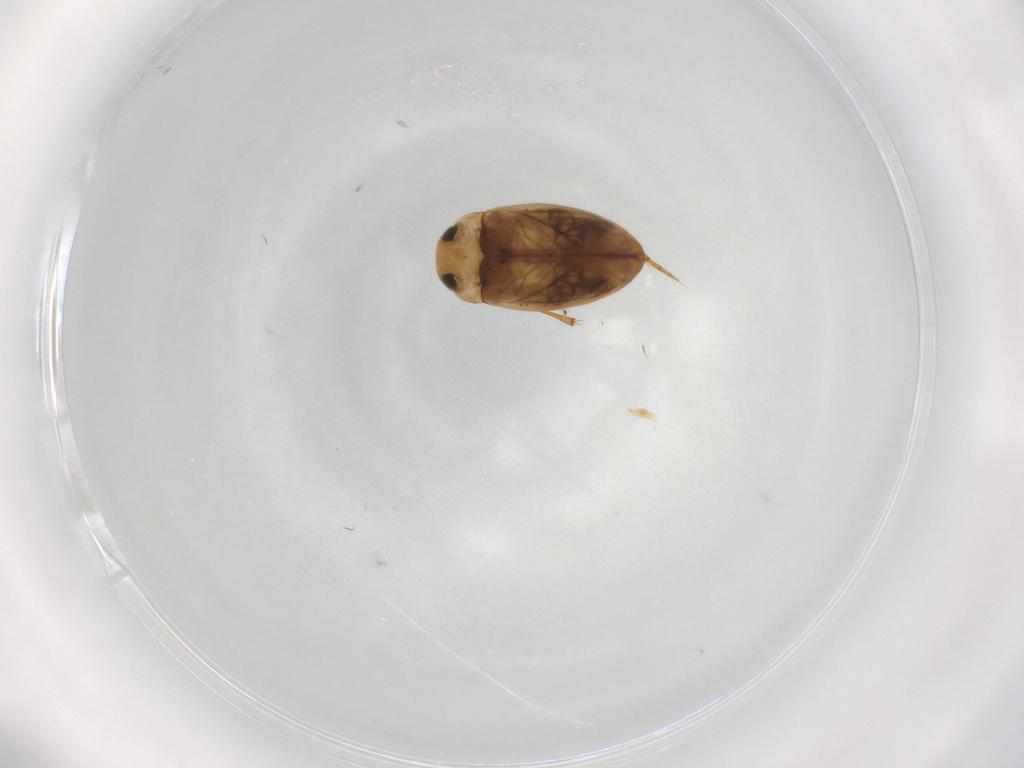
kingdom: Animalia
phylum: Arthropoda
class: Insecta
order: Coleoptera
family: Dytiscidae
